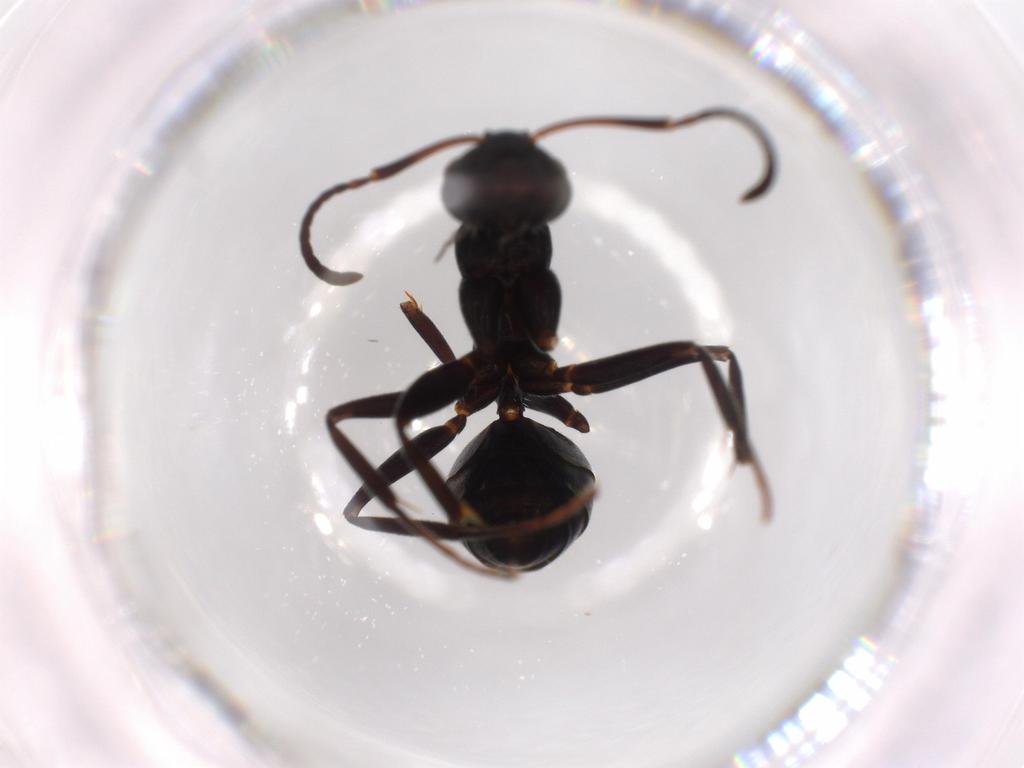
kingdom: Animalia
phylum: Arthropoda
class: Insecta
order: Hymenoptera
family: Formicidae
